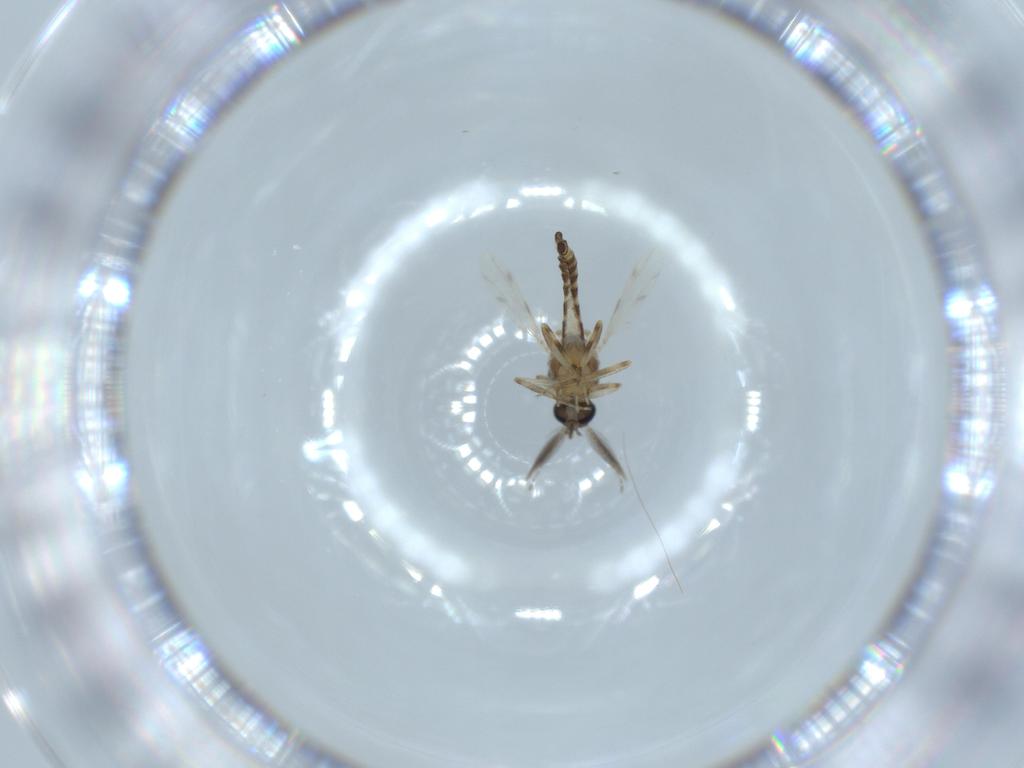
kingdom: Animalia
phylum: Arthropoda
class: Insecta
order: Diptera
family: Ceratopogonidae
